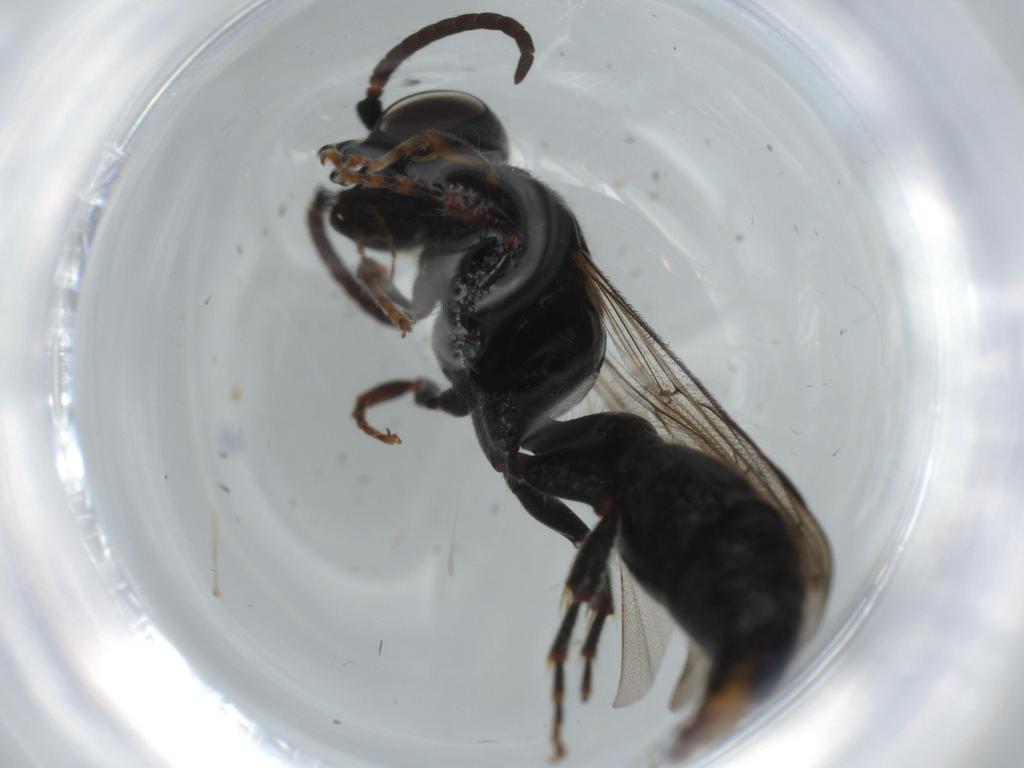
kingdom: Animalia
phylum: Arthropoda
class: Insecta
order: Hymenoptera
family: Tiphiidae
